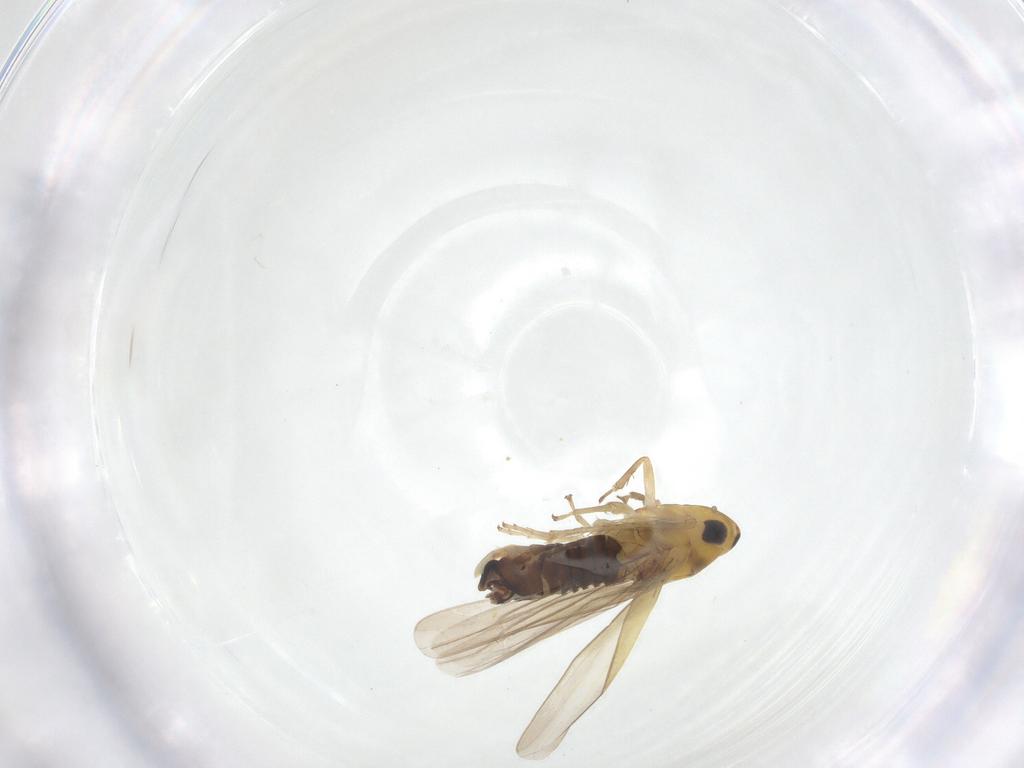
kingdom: Animalia
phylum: Arthropoda
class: Insecta
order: Hemiptera
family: Cicadellidae
